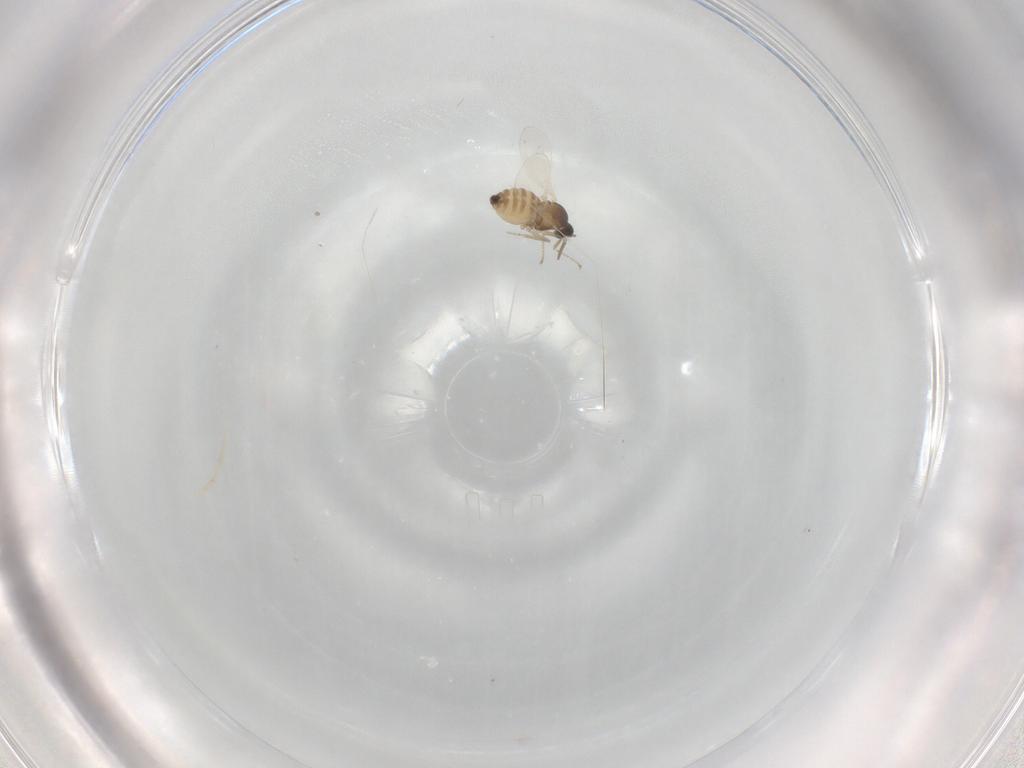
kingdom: Animalia
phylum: Arthropoda
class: Insecta
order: Diptera
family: Cecidomyiidae
